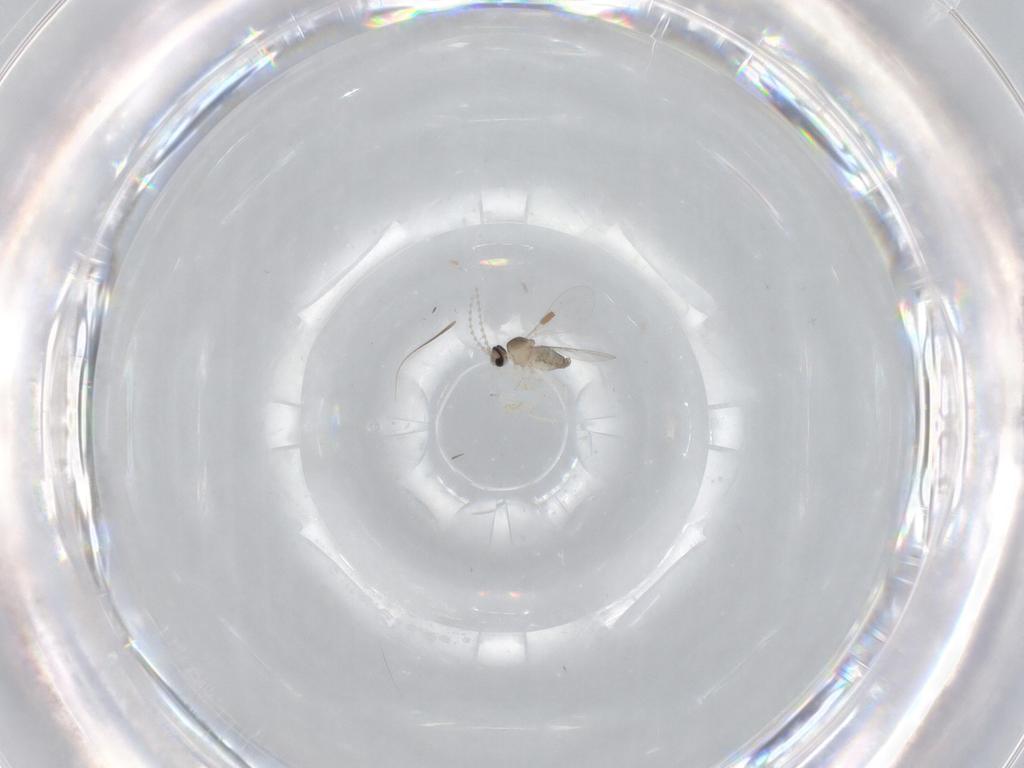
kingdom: Animalia
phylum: Arthropoda
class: Insecta
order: Diptera
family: Cecidomyiidae
